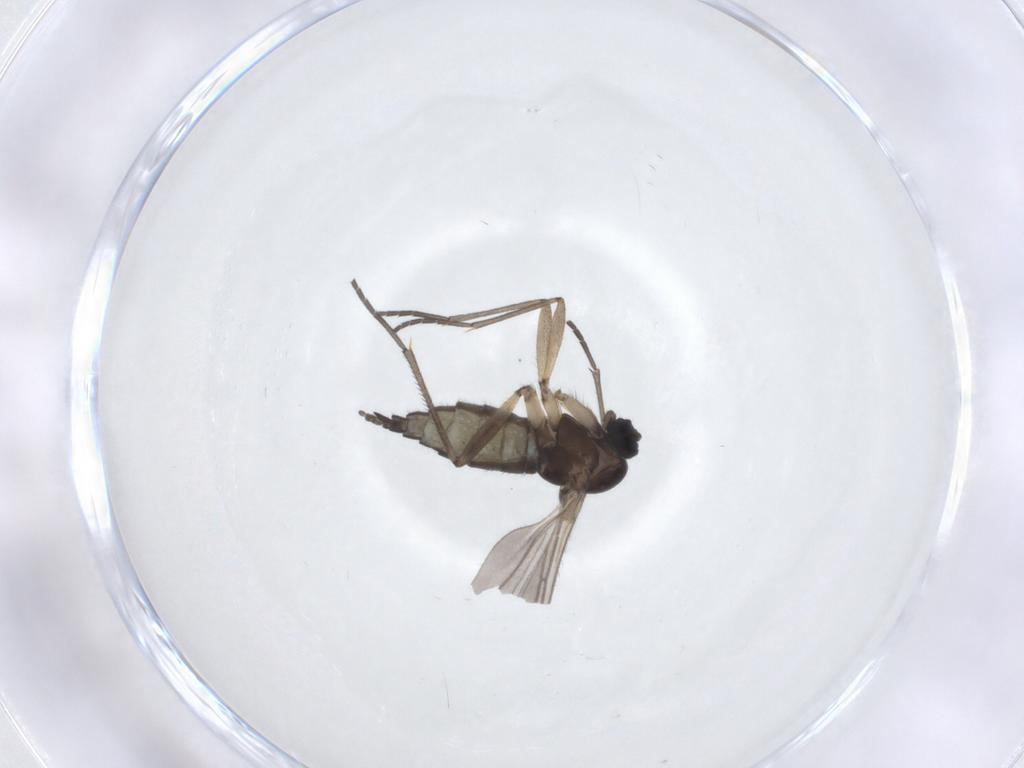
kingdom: Animalia
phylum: Arthropoda
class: Insecta
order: Diptera
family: Sciaridae
